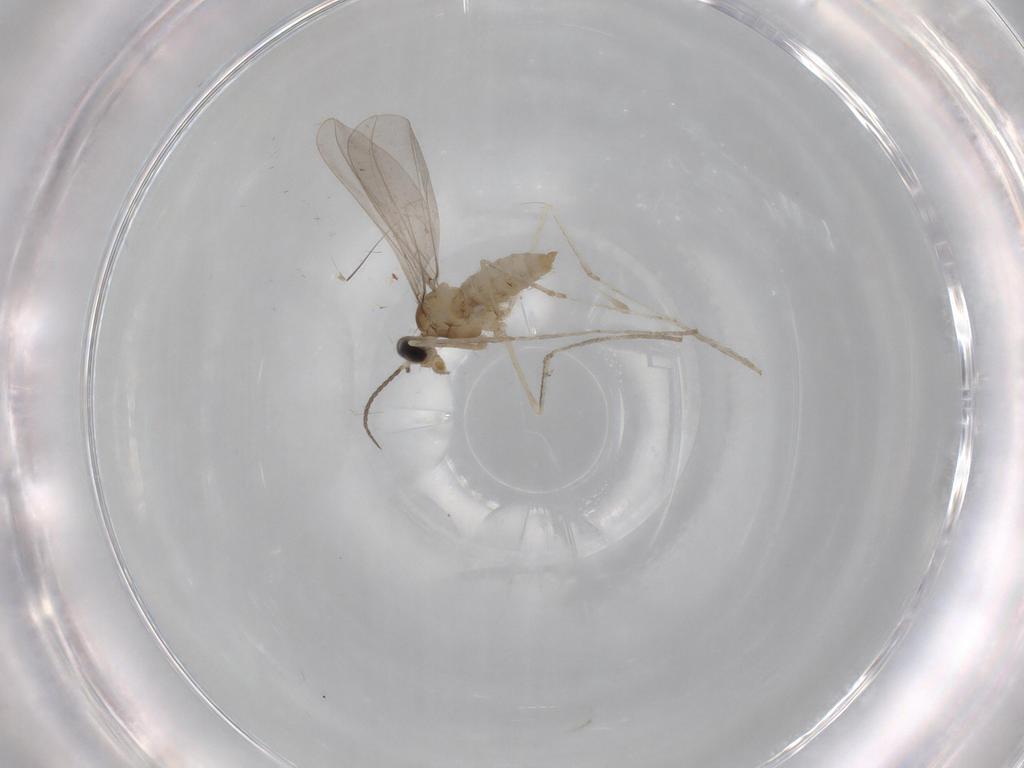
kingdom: Animalia
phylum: Arthropoda
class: Insecta
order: Diptera
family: Cecidomyiidae
